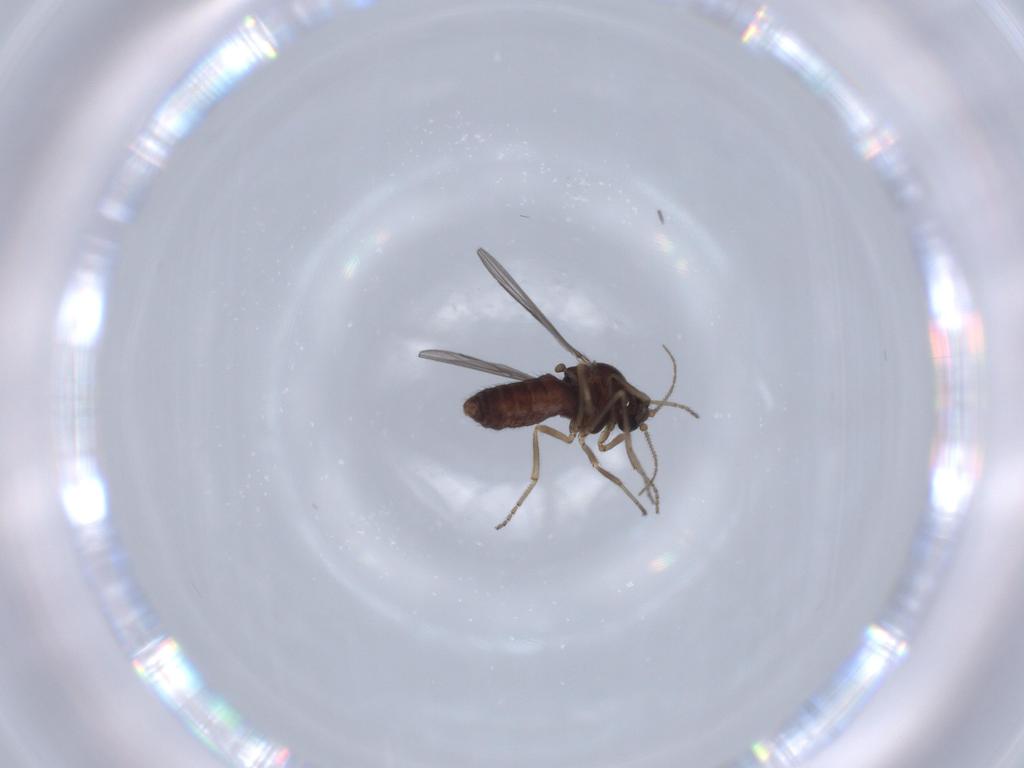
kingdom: Animalia
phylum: Arthropoda
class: Insecta
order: Diptera
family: Ceratopogonidae
